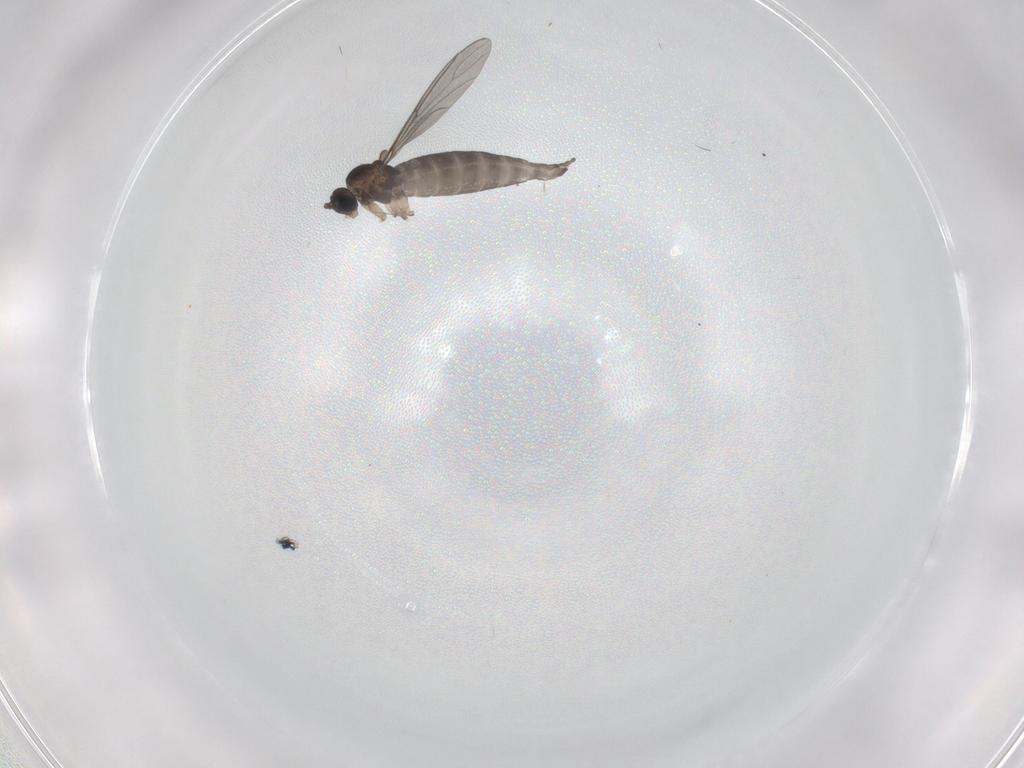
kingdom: Animalia
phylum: Arthropoda
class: Insecta
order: Diptera
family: Sciaridae
